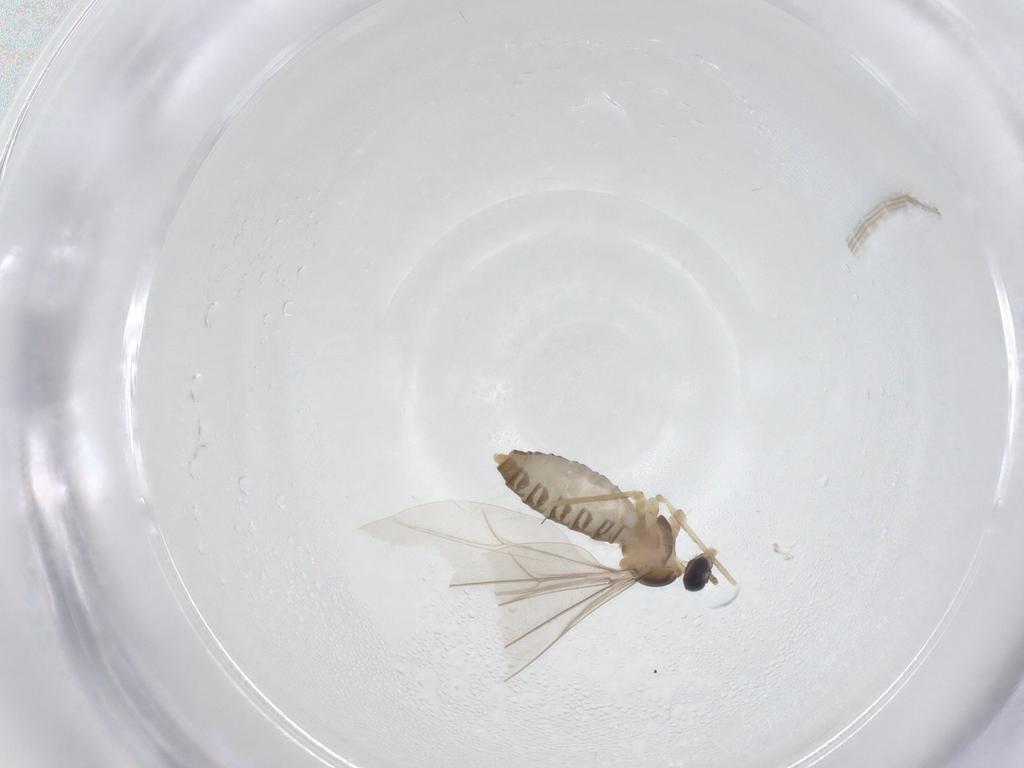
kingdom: Animalia
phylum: Arthropoda
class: Insecta
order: Diptera
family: Chironomidae
